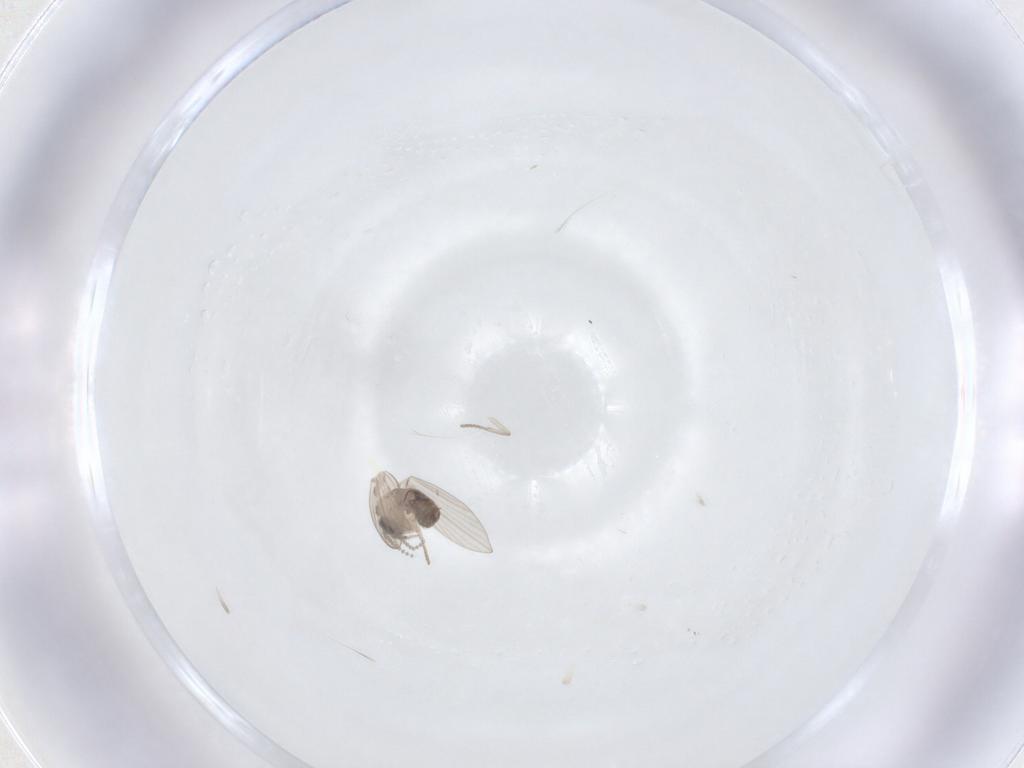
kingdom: Animalia
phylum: Arthropoda
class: Insecta
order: Diptera
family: Psychodidae
